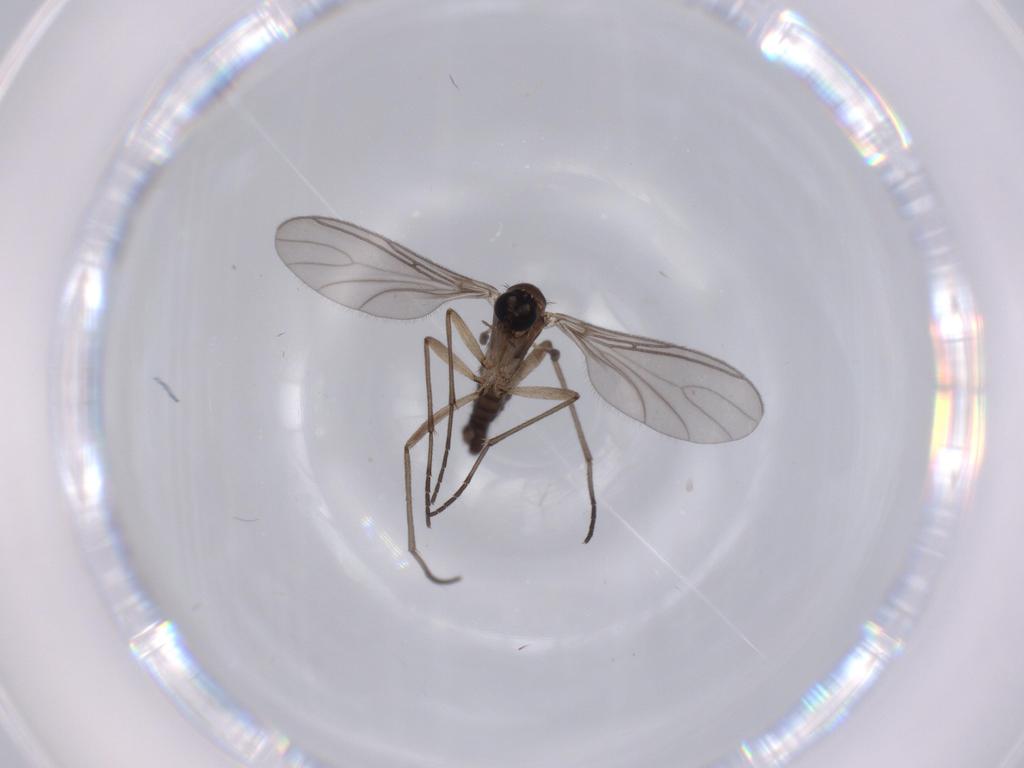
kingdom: Animalia
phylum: Arthropoda
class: Insecta
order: Diptera
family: Sciaridae
